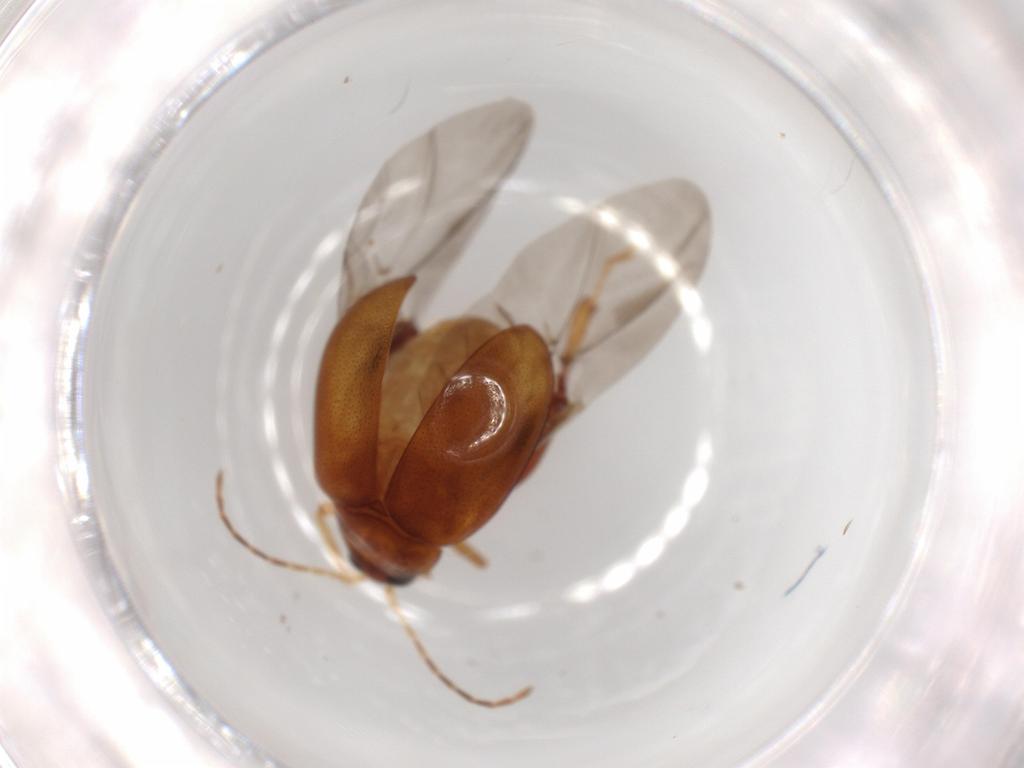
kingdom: Animalia
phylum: Arthropoda
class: Insecta
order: Coleoptera
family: Chrysomelidae
